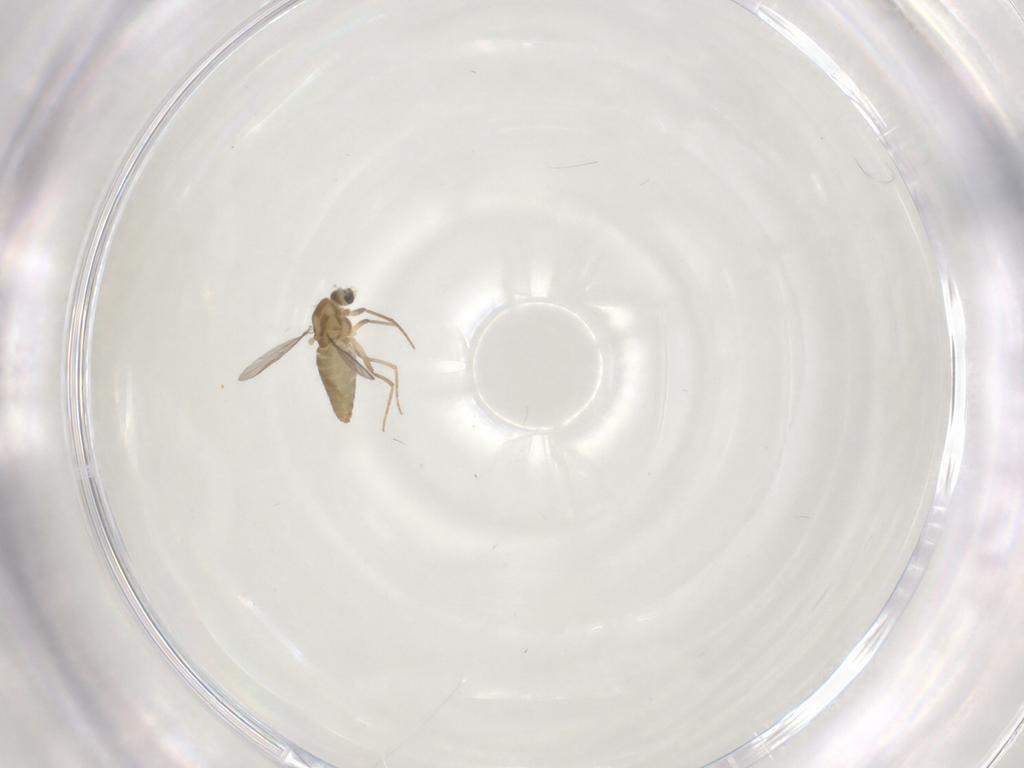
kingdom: Animalia
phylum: Arthropoda
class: Insecta
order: Diptera
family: Chironomidae
